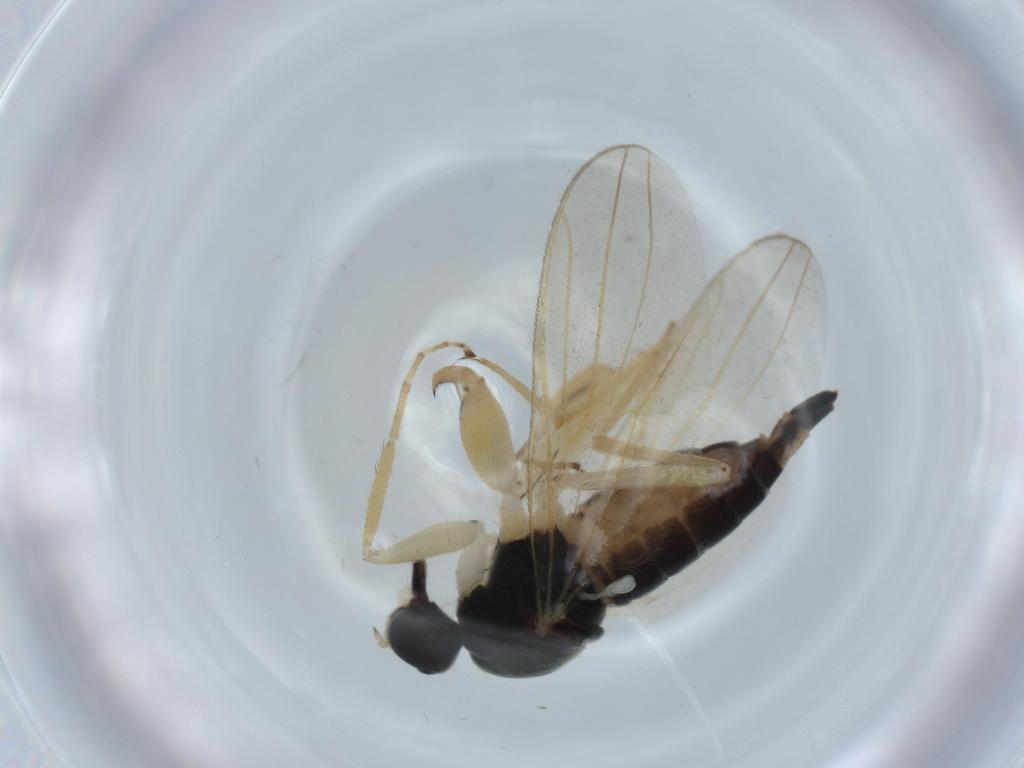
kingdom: Animalia
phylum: Arthropoda
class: Insecta
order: Diptera
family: Hybotidae
